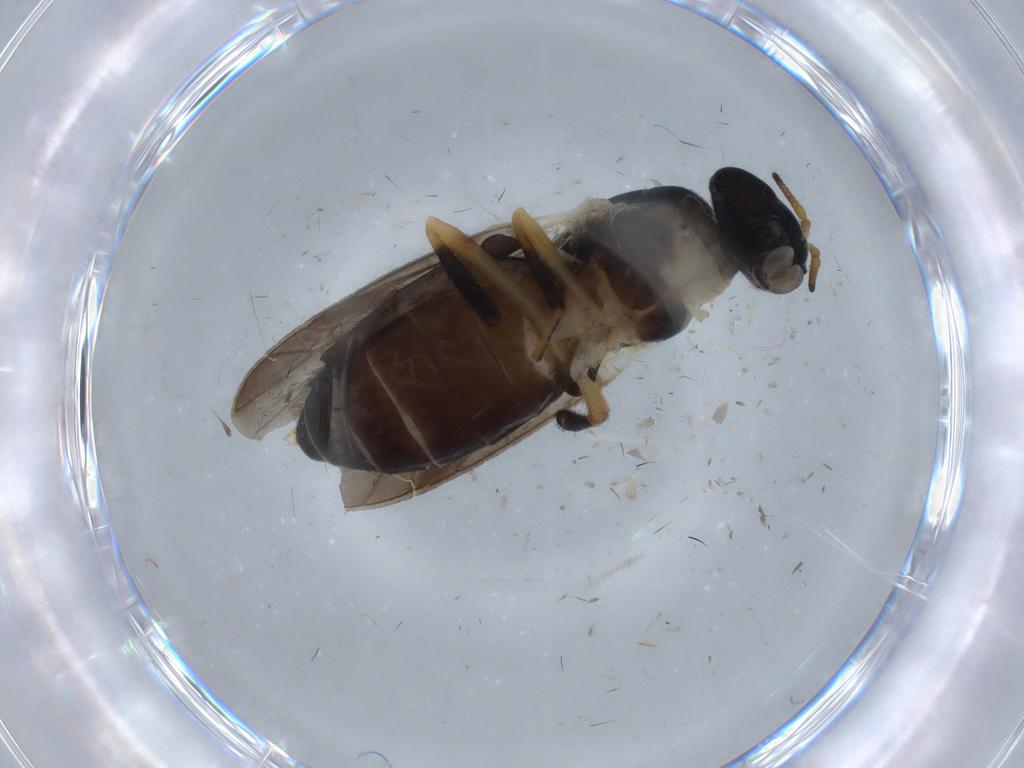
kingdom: Animalia
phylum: Arthropoda
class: Insecta
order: Diptera
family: Stratiomyidae
